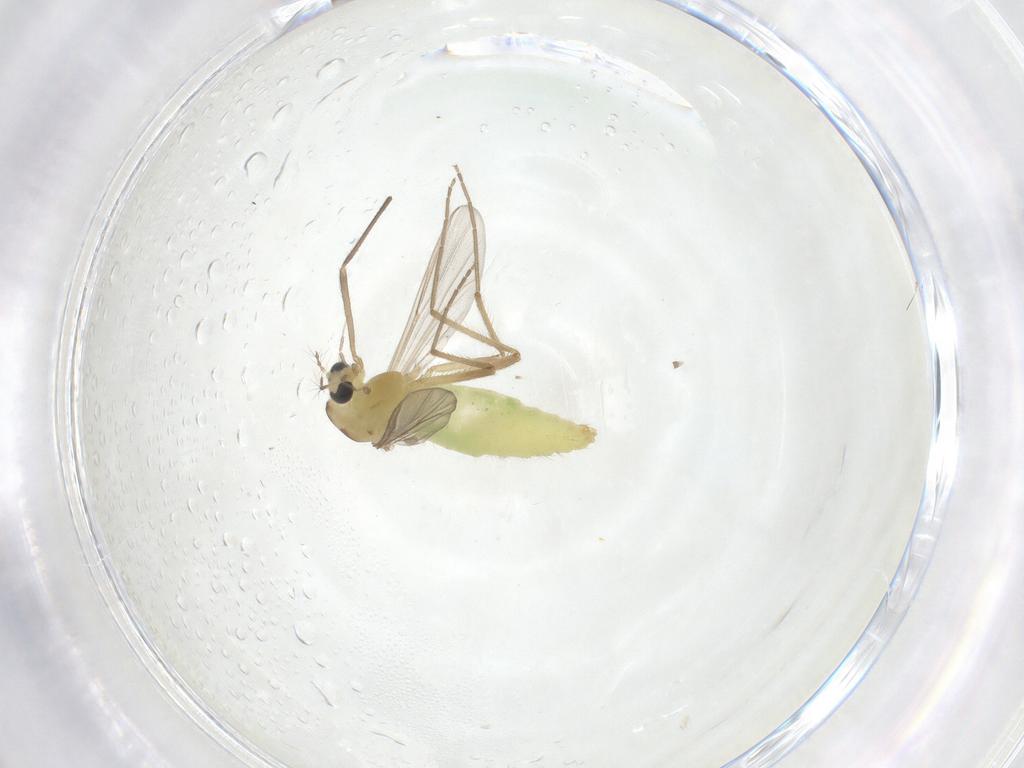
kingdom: Animalia
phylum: Arthropoda
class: Insecta
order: Diptera
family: Chironomidae
